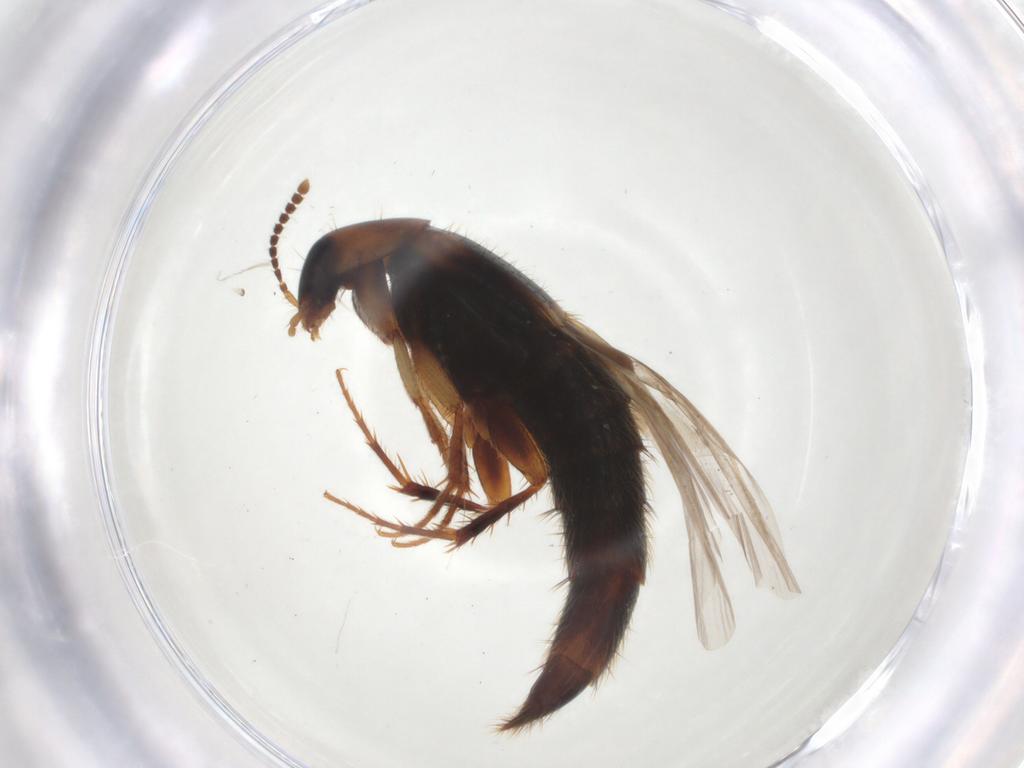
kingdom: Animalia
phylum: Arthropoda
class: Insecta
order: Coleoptera
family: Staphylinidae
